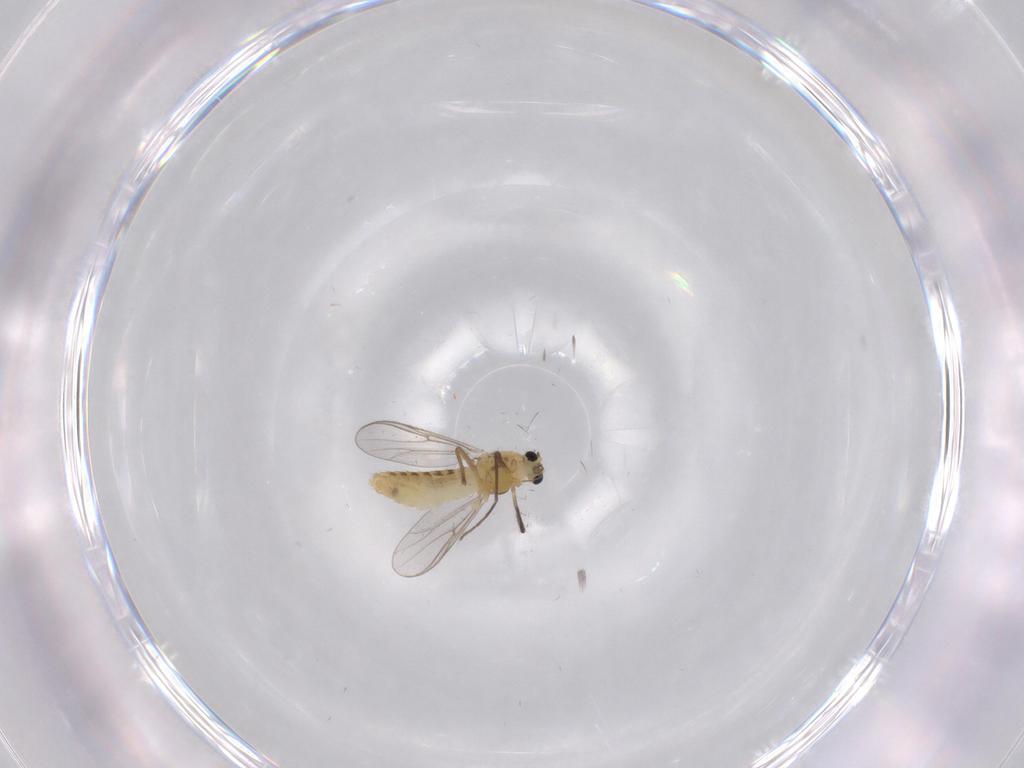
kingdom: Animalia
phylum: Arthropoda
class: Insecta
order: Diptera
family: Chironomidae
